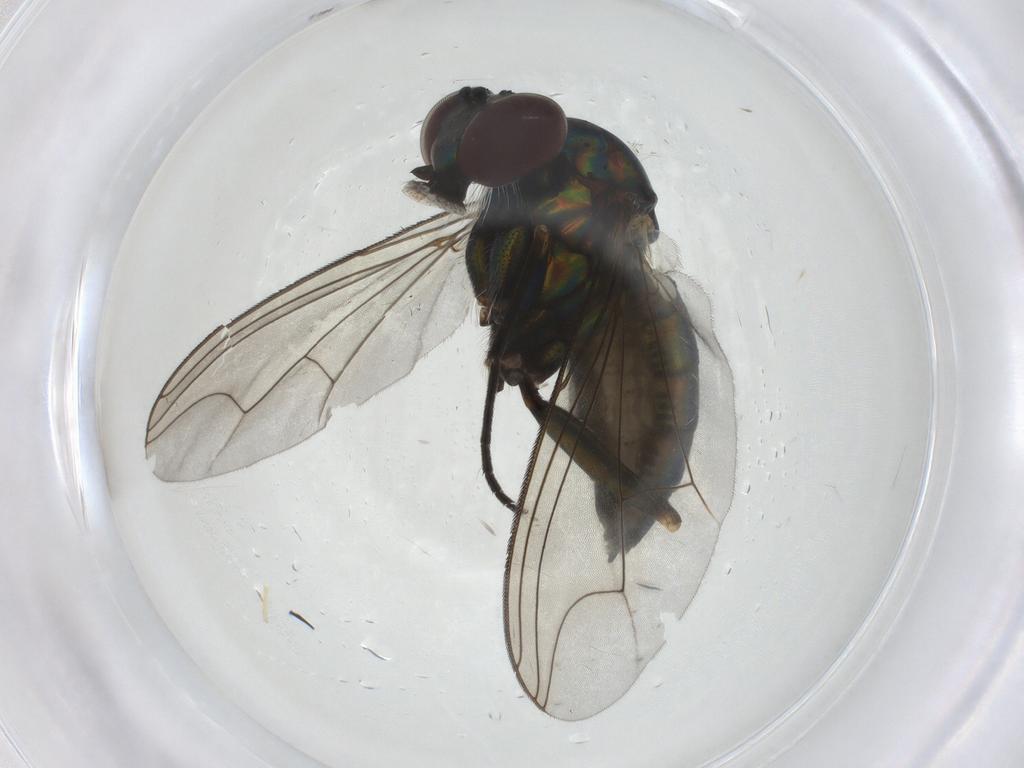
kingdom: Animalia
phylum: Arthropoda
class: Insecta
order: Diptera
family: Dolichopodidae
